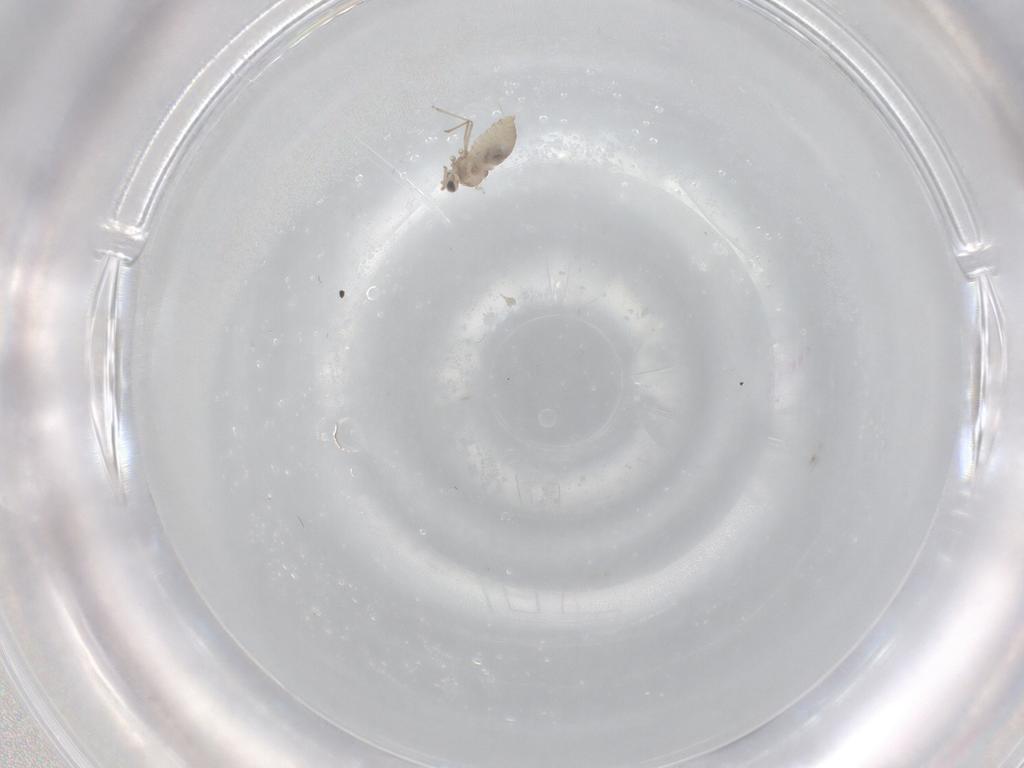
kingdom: Animalia
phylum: Arthropoda
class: Insecta
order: Diptera
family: Cecidomyiidae
